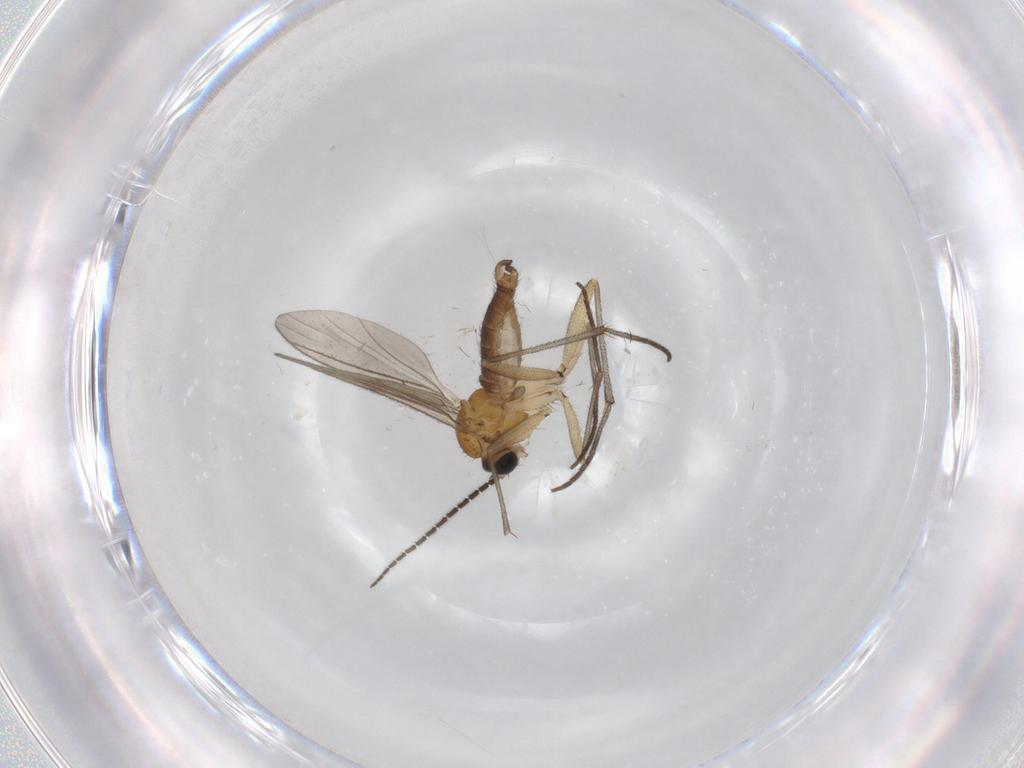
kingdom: Animalia
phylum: Arthropoda
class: Insecta
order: Diptera
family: Sciaridae
